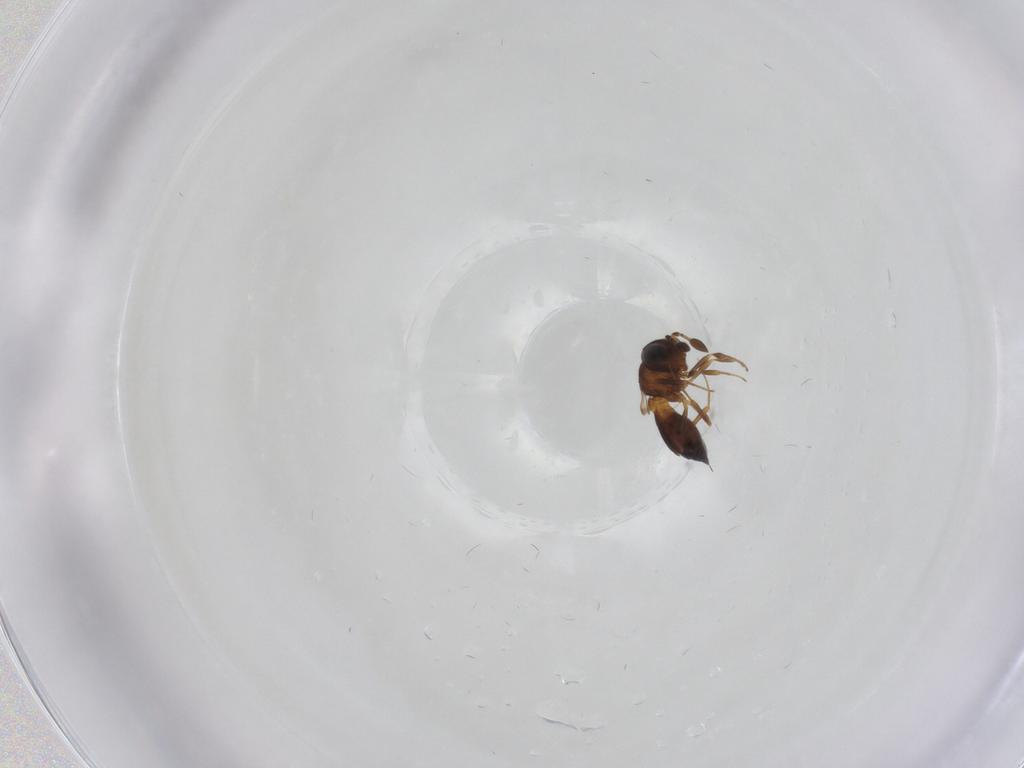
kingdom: Animalia
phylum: Arthropoda
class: Insecta
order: Hymenoptera
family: Scelionidae
